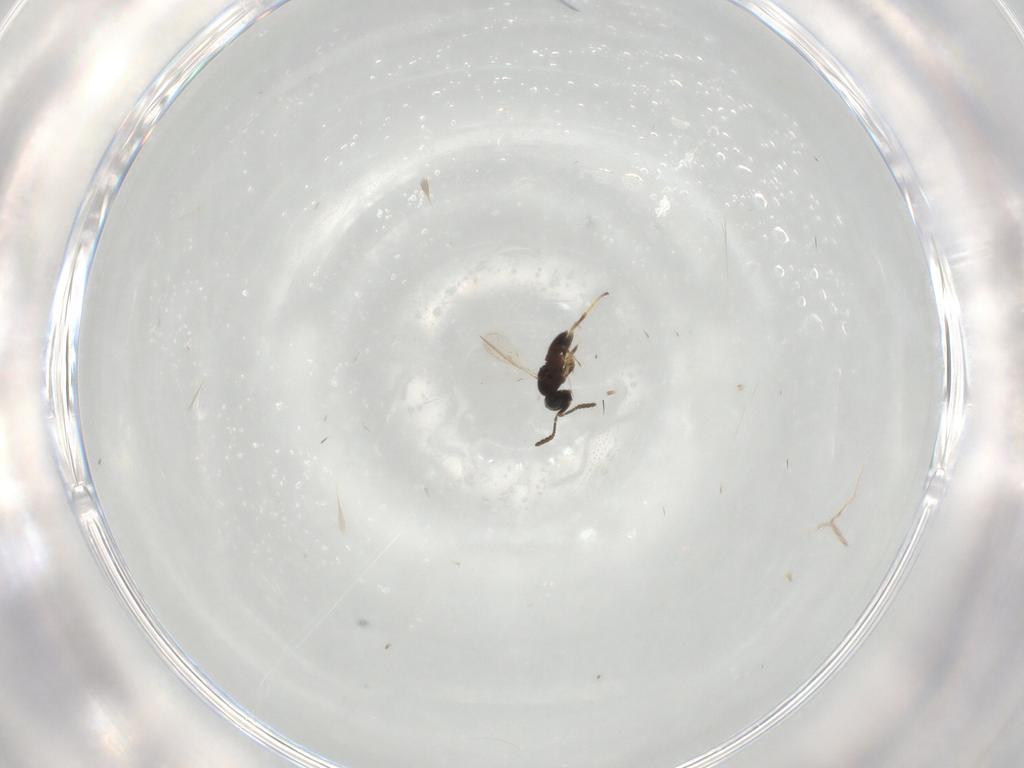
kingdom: Animalia
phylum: Arthropoda
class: Insecta
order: Hymenoptera
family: Scelionidae
